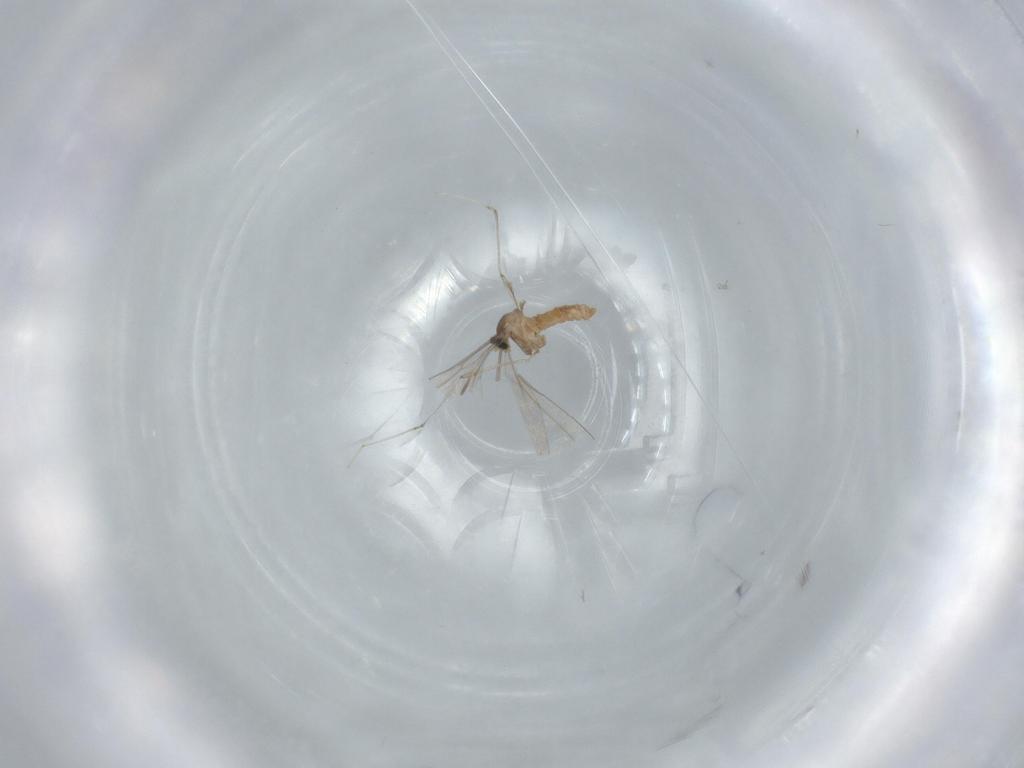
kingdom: Animalia
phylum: Arthropoda
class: Insecta
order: Diptera
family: Cecidomyiidae
